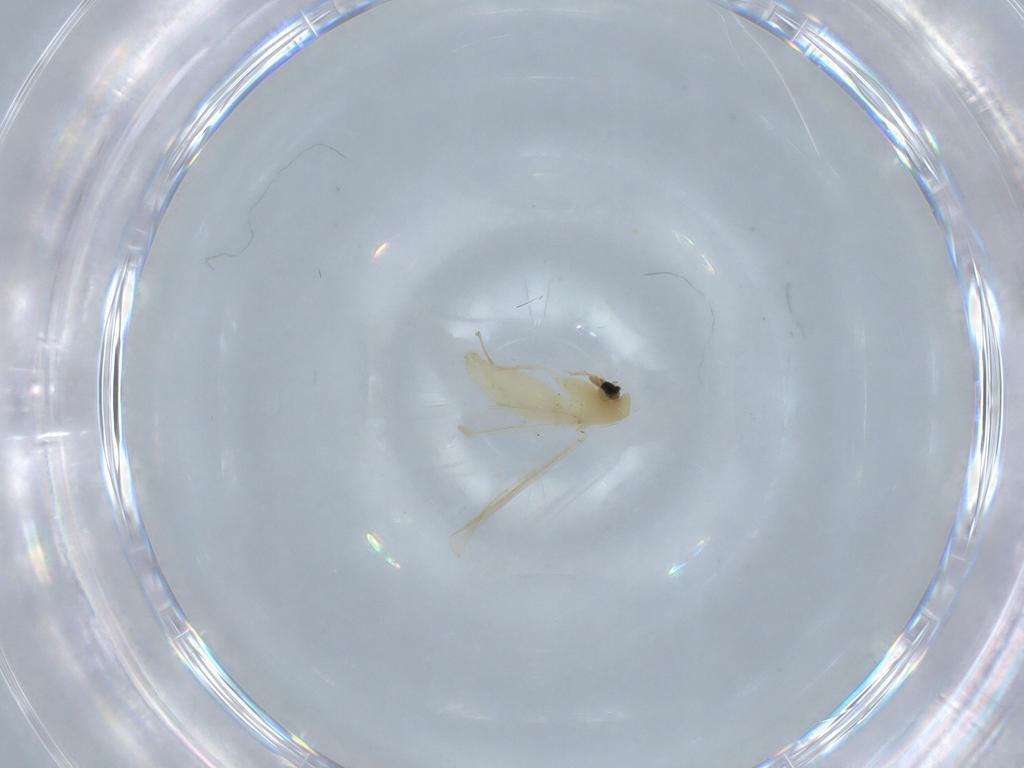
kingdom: Animalia
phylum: Arthropoda
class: Insecta
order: Diptera
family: Chironomidae
